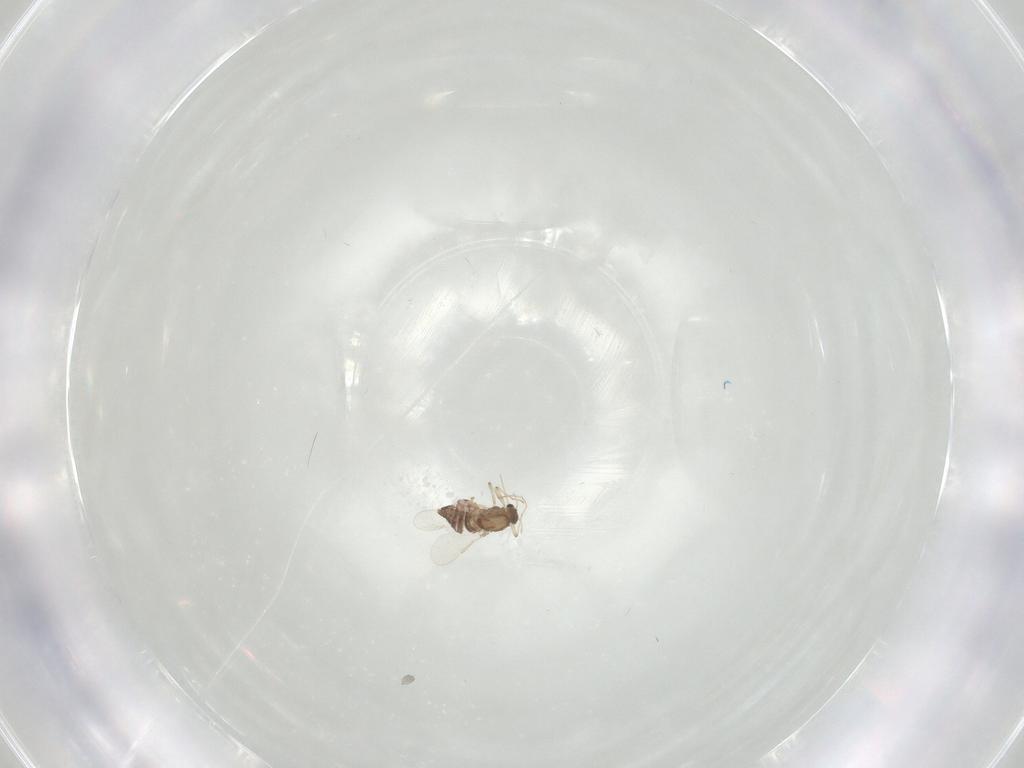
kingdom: Animalia
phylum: Arthropoda
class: Insecta
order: Diptera
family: Chironomidae
